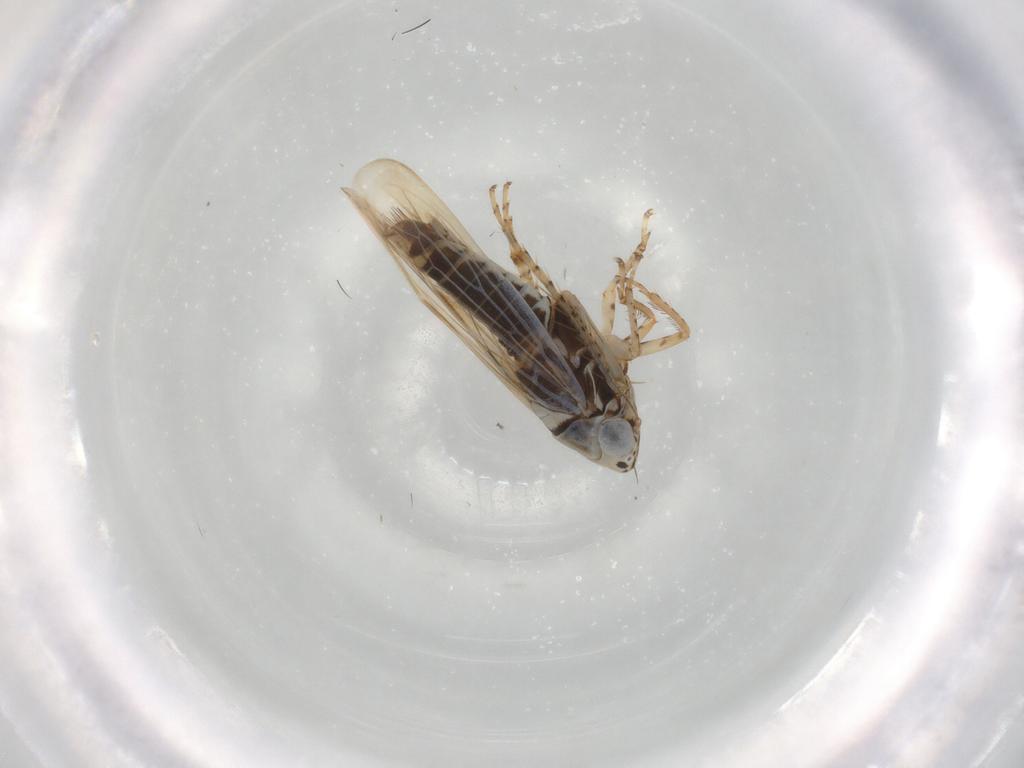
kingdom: Animalia
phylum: Arthropoda
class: Insecta
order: Hemiptera
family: Cicadellidae
